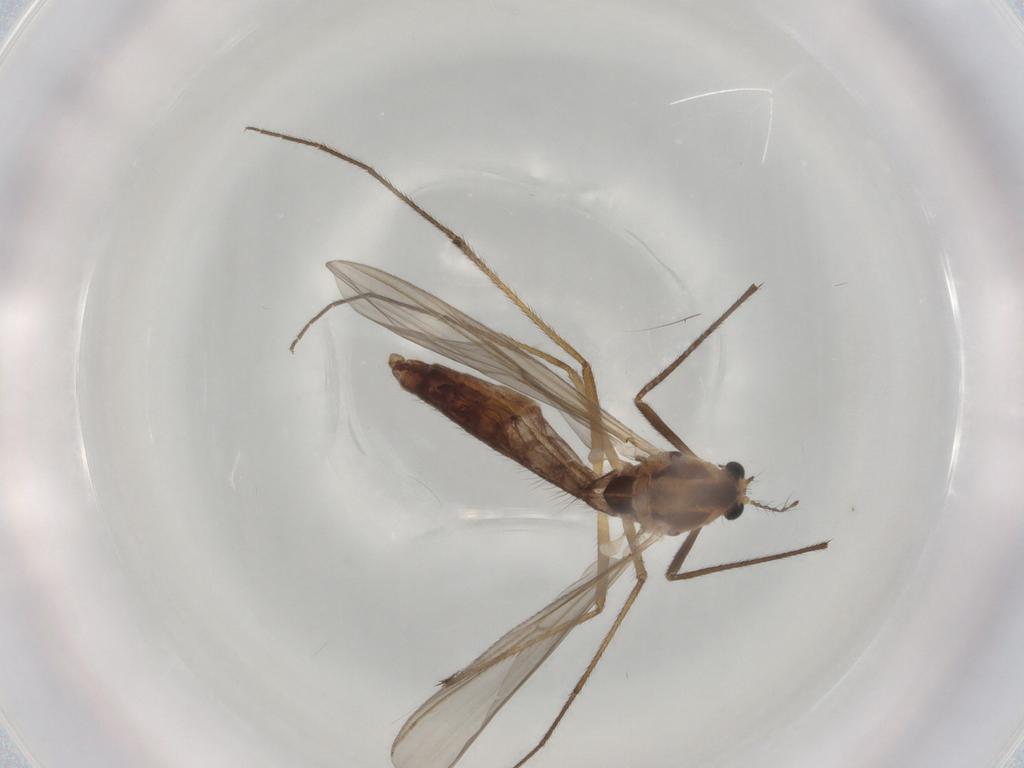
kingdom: Animalia
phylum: Arthropoda
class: Insecta
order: Diptera
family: Chironomidae
